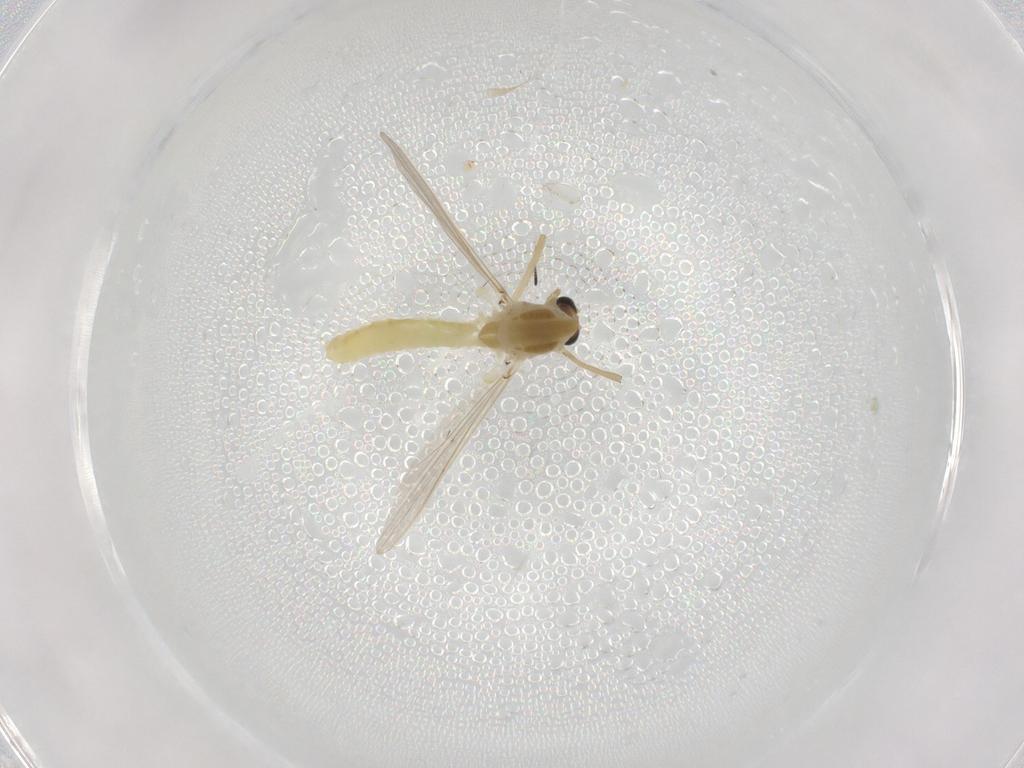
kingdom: Animalia
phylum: Arthropoda
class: Insecta
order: Diptera
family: Chironomidae
